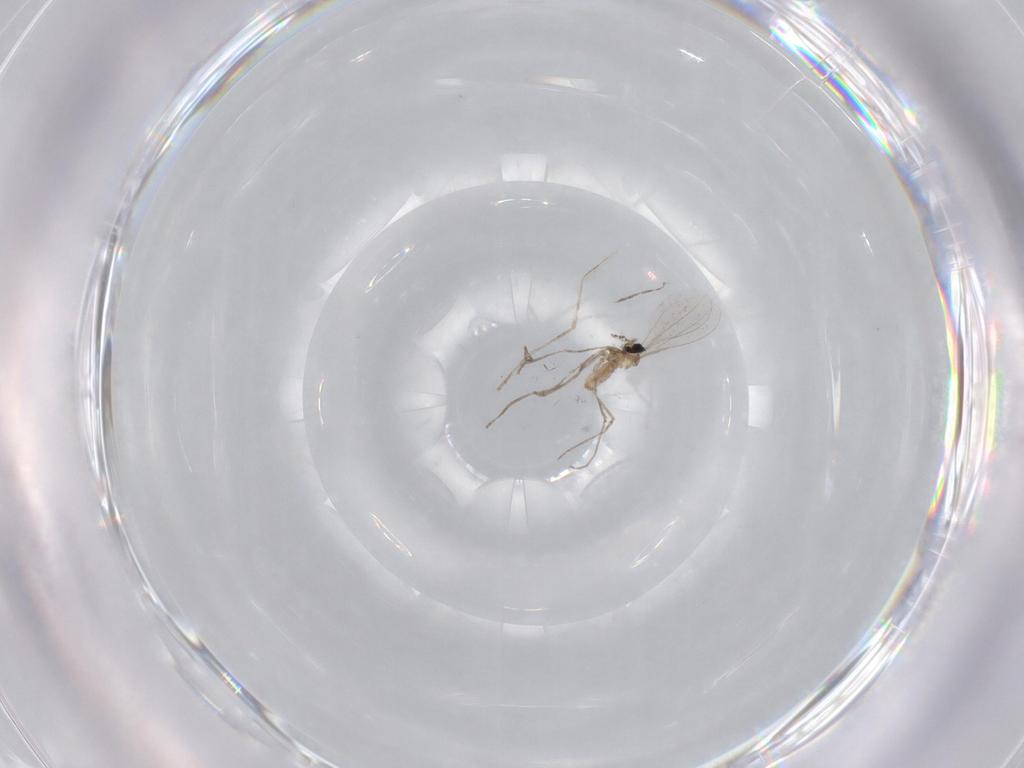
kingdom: Animalia
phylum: Arthropoda
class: Insecta
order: Diptera
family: Cecidomyiidae
